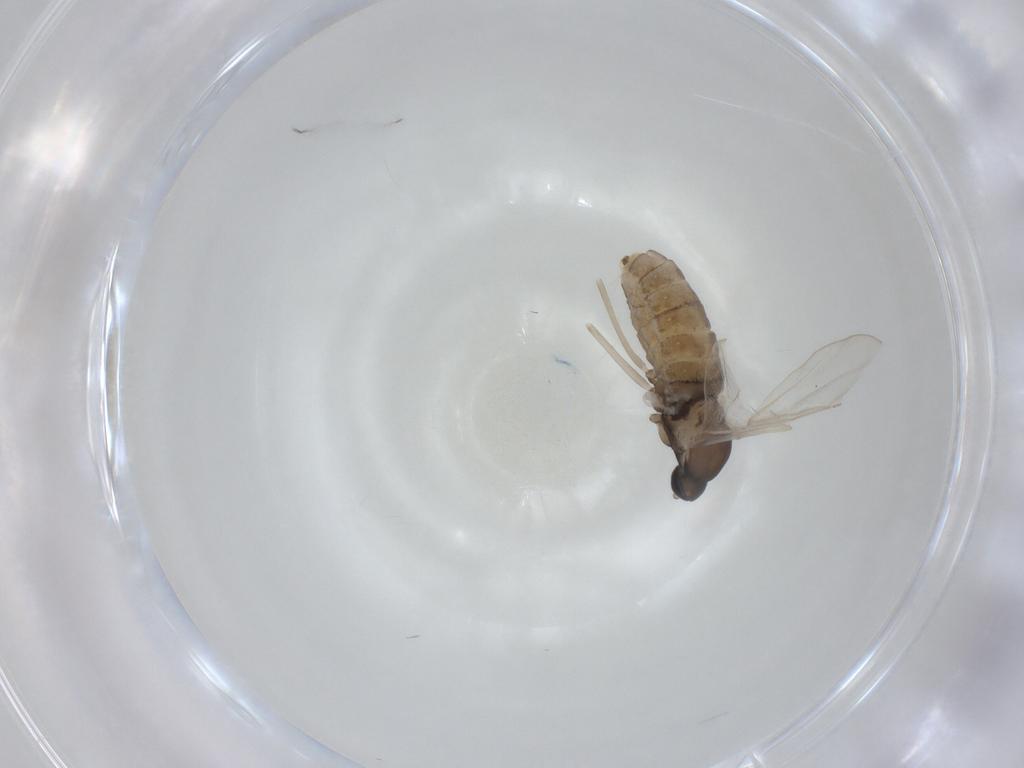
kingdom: Animalia
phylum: Arthropoda
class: Insecta
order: Diptera
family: Cecidomyiidae
